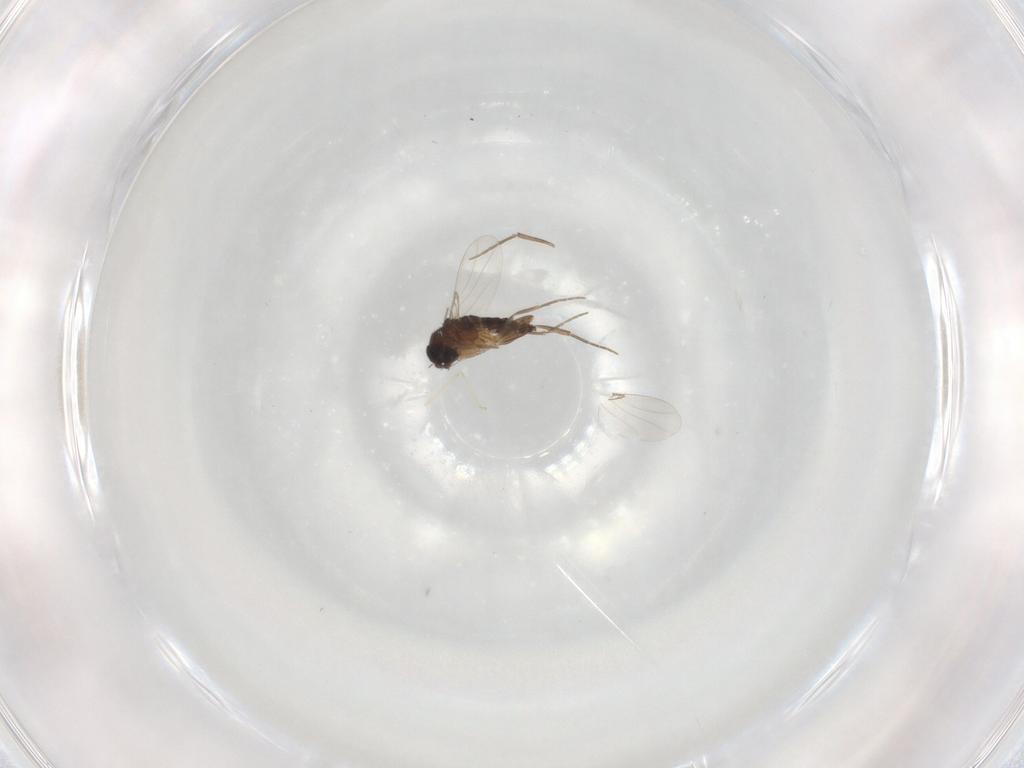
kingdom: Animalia
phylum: Arthropoda
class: Insecta
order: Diptera
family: Phoridae
